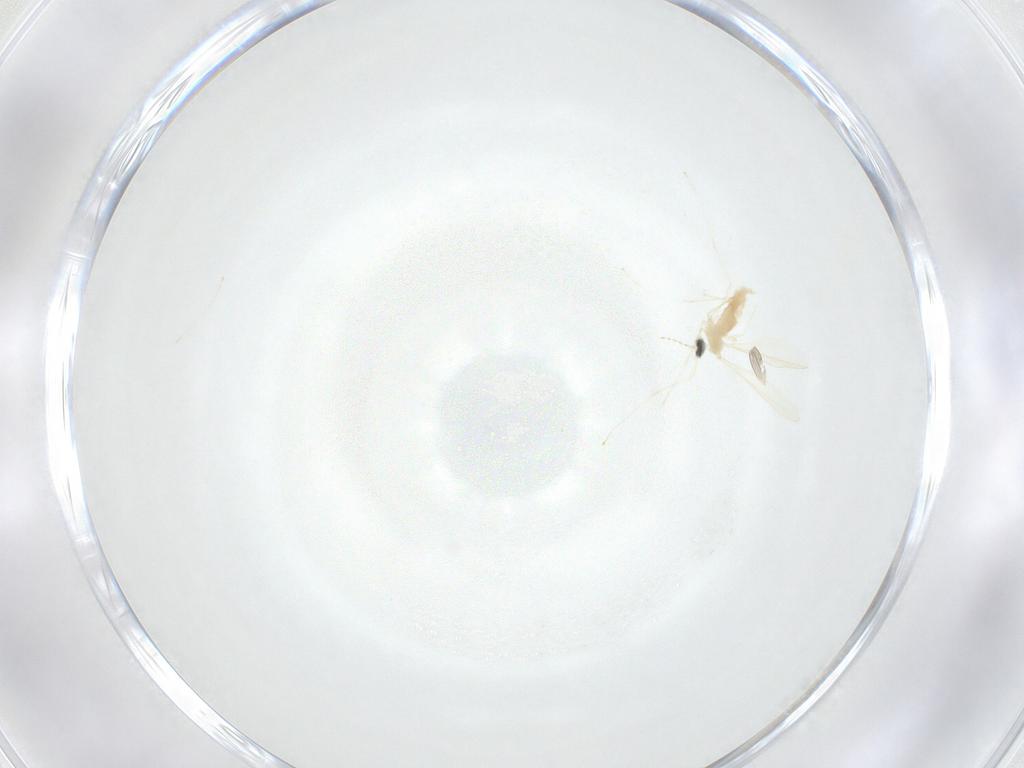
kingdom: Animalia
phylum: Arthropoda
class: Insecta
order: Diptera
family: Cecidomyiidae
